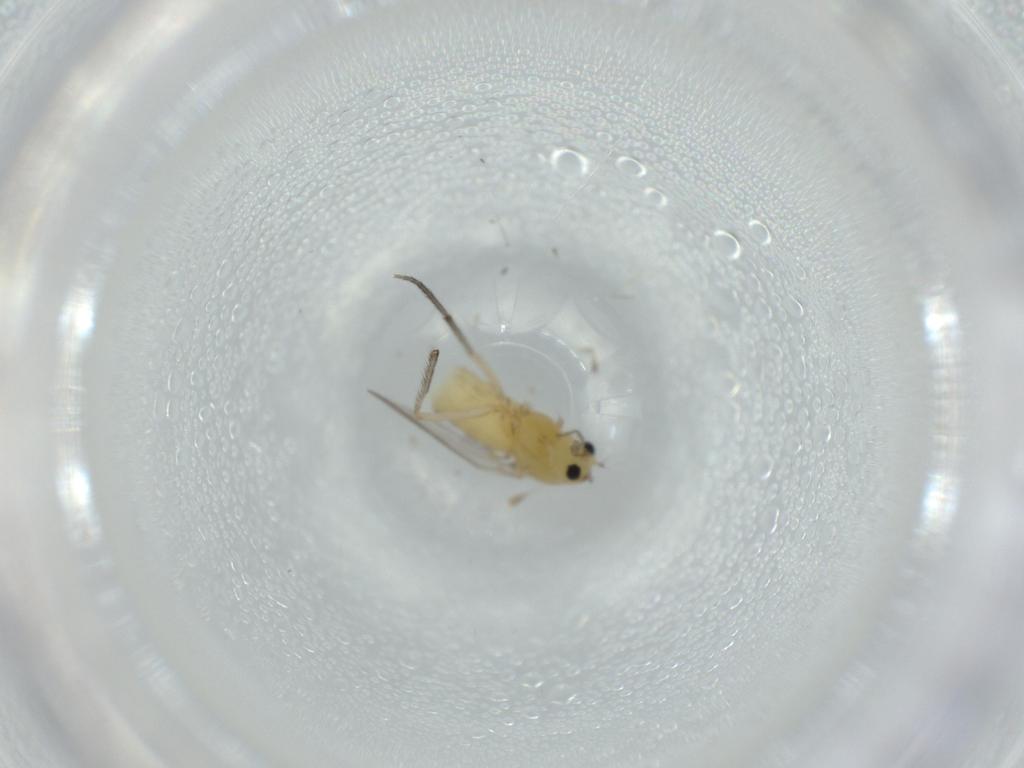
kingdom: Animalia
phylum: Arthropoda
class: Insecta
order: Diptera
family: Chironomidae
